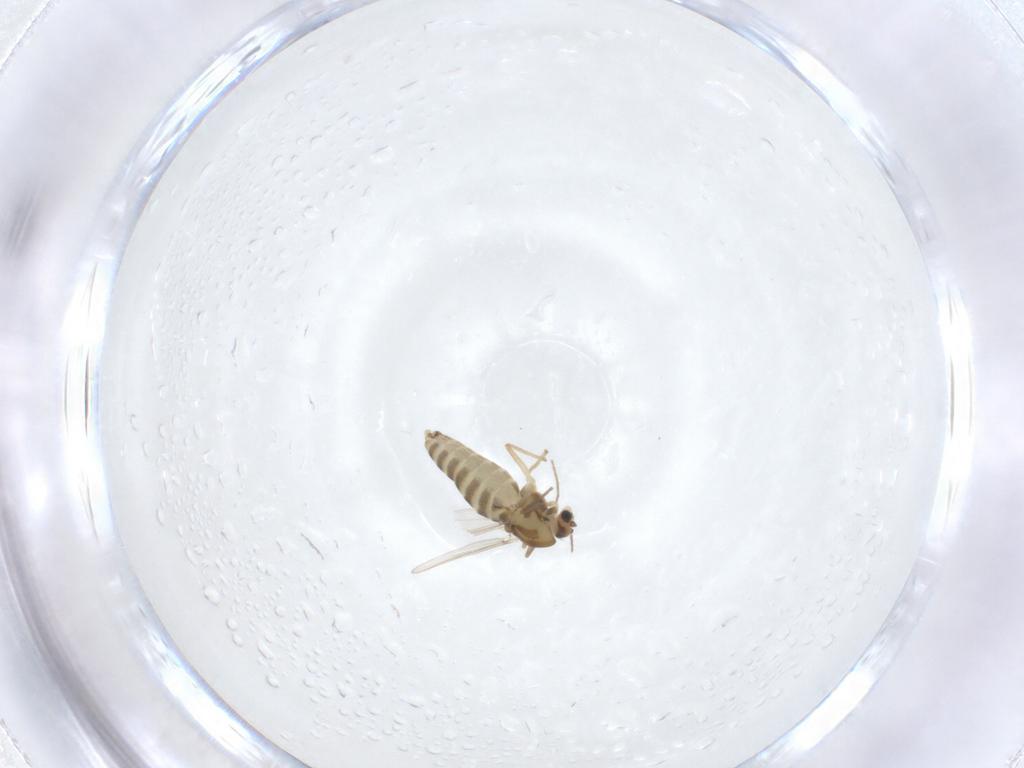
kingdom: Animalia
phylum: Arthropoda
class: Insecta
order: Diptera
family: Chironomidae
